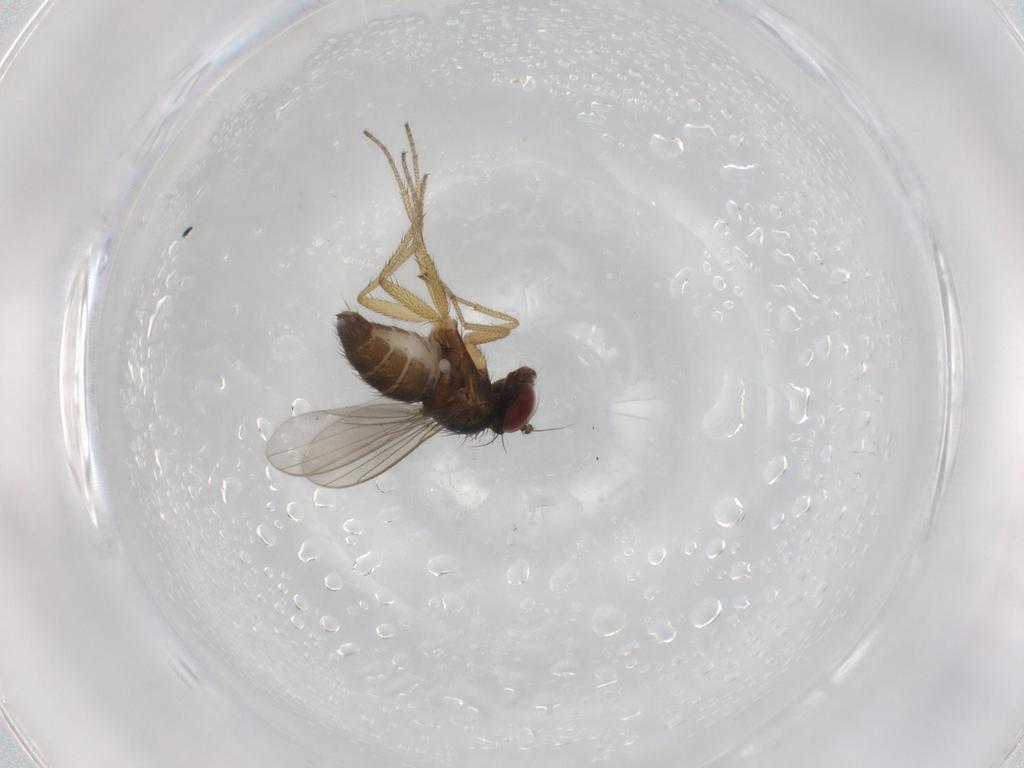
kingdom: Animalia
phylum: Arthropoda
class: Insecta
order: Diptera
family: Dolichopodidae
